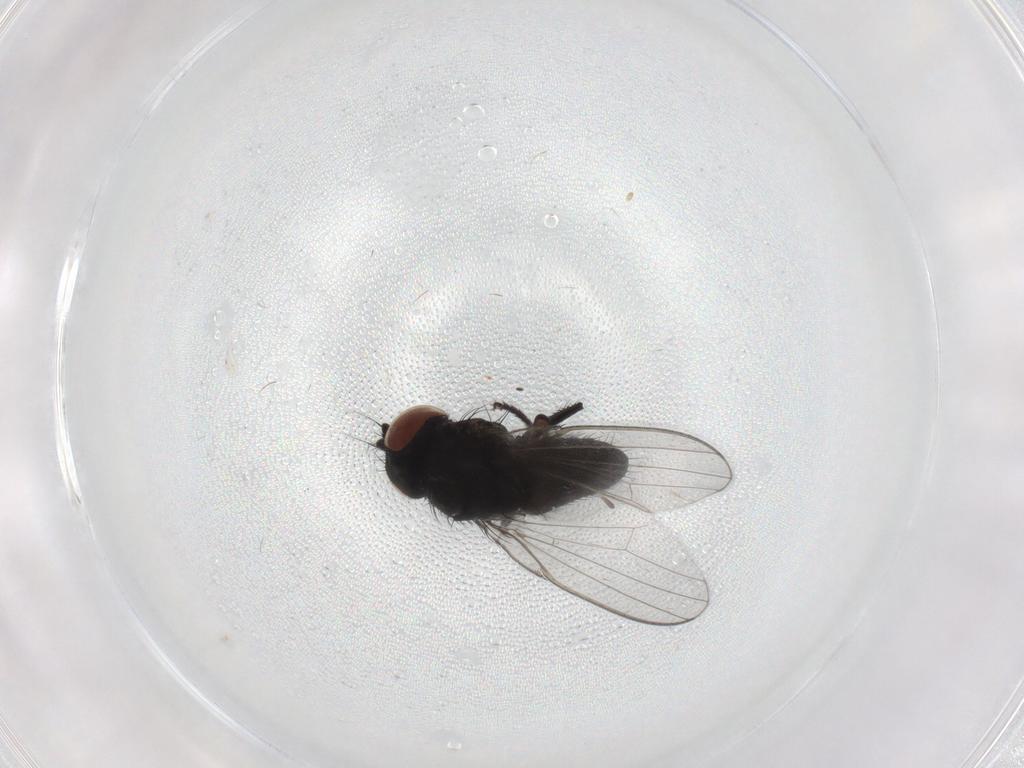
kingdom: Animalia
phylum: Arthropoda
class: Insecta
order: Diptera
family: Milichiidae
